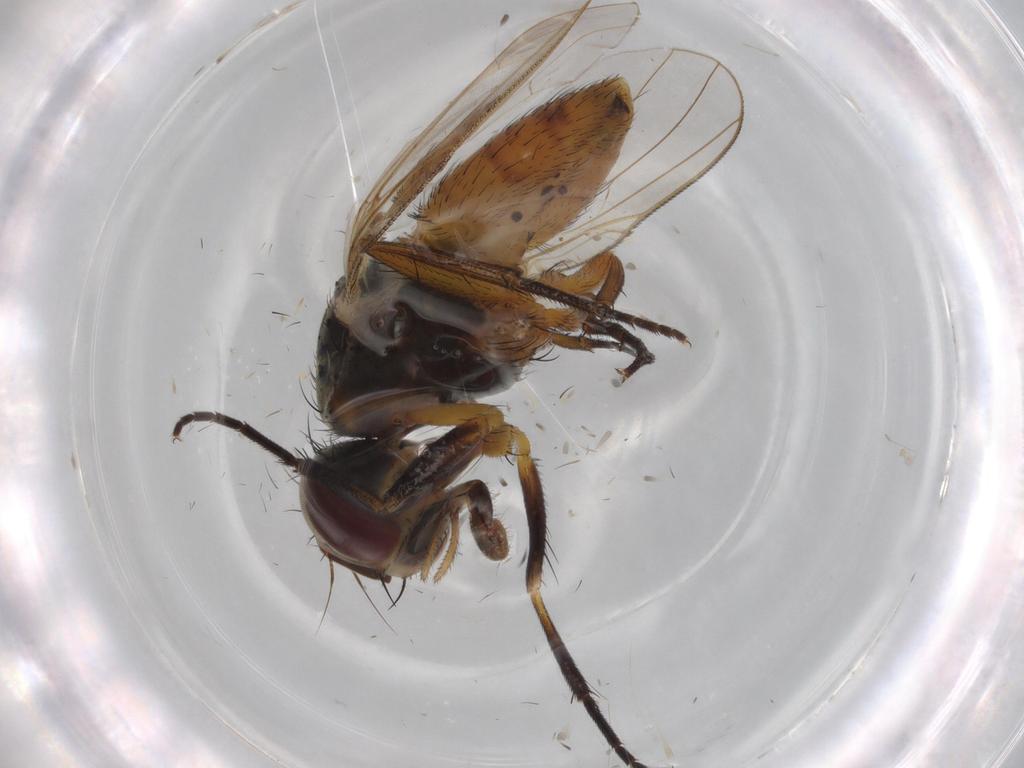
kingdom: Animalia
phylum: Arthropoda
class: Insecta
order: Diptera
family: Muscidae
